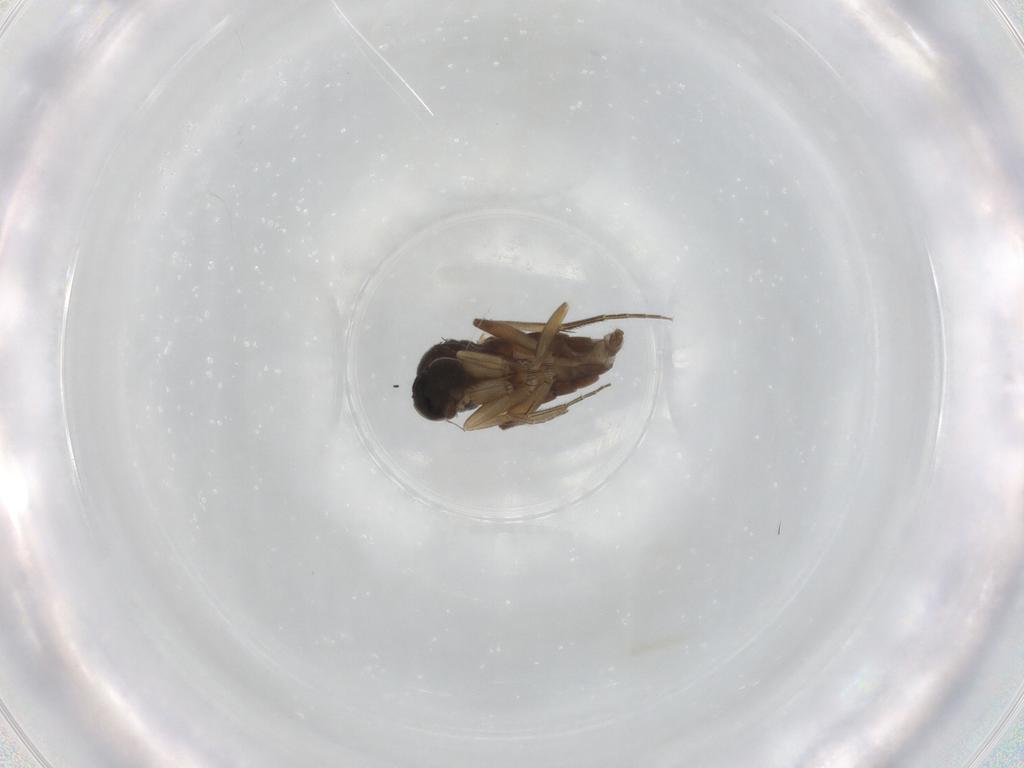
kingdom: Animalia
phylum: Arthropoda
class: Insecta
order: Diptera
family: Phoridae
